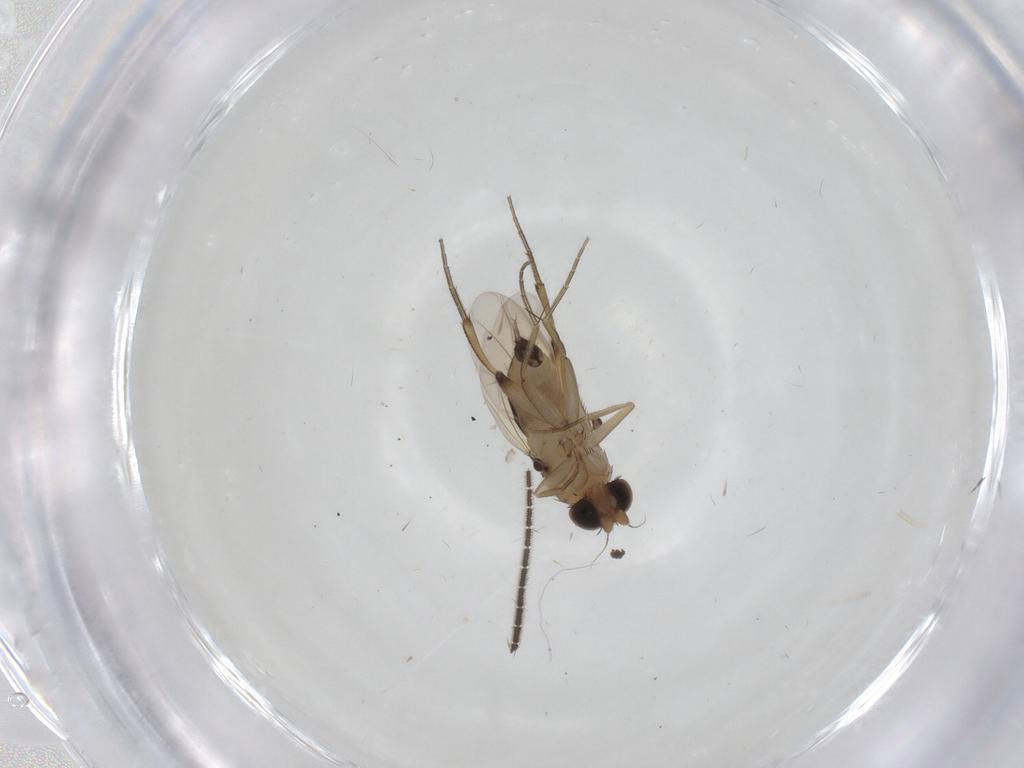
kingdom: Animalia
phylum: Arthropoda
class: Insecta
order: Diptera
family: Sciaridae
